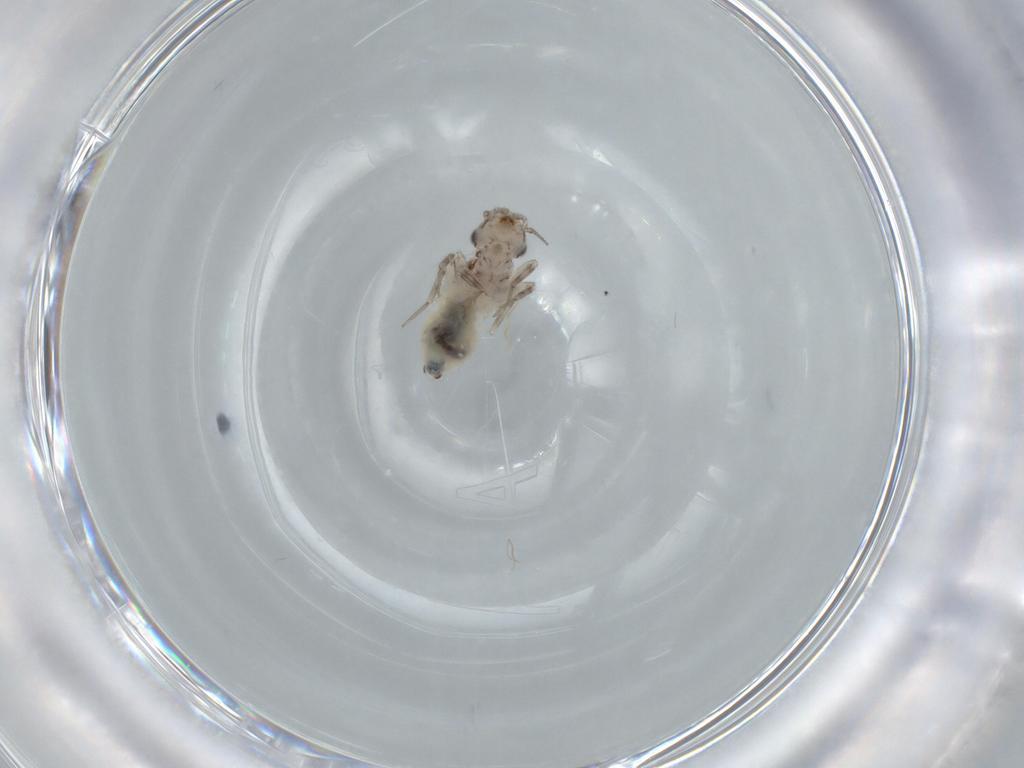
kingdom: Animalia
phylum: Arthropoda
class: Insecta
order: Psocodea
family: Lepidopsocidae
